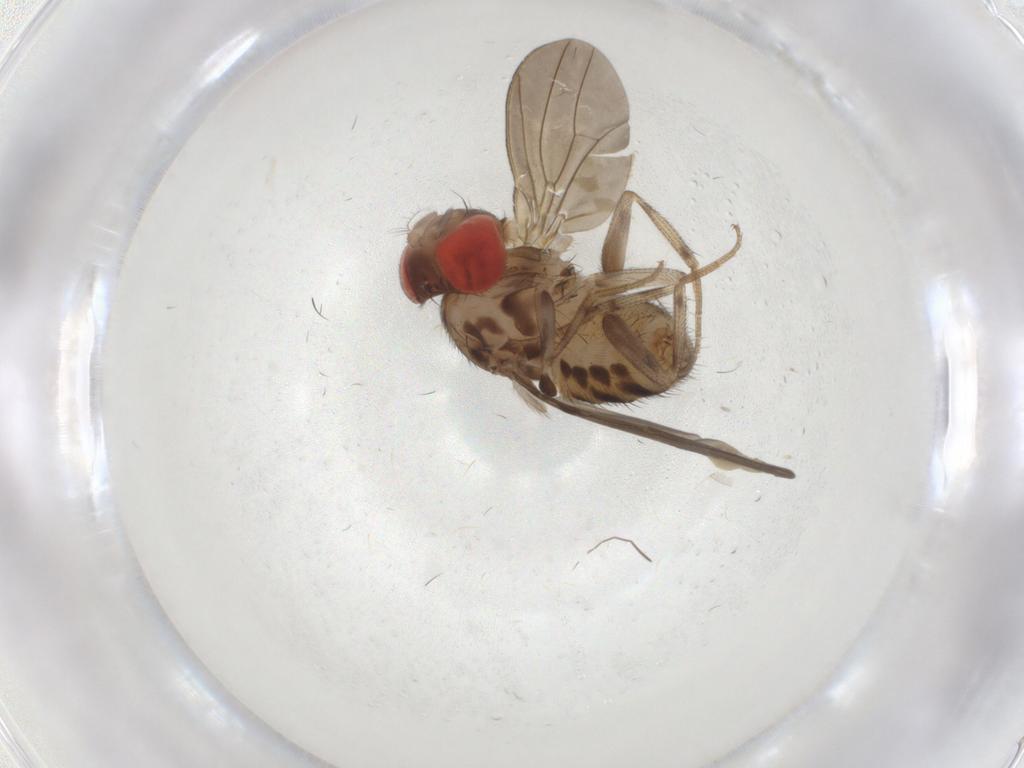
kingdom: Animalia
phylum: Arthropoda
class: Insecta
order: Diptera
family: Drosophilidae
